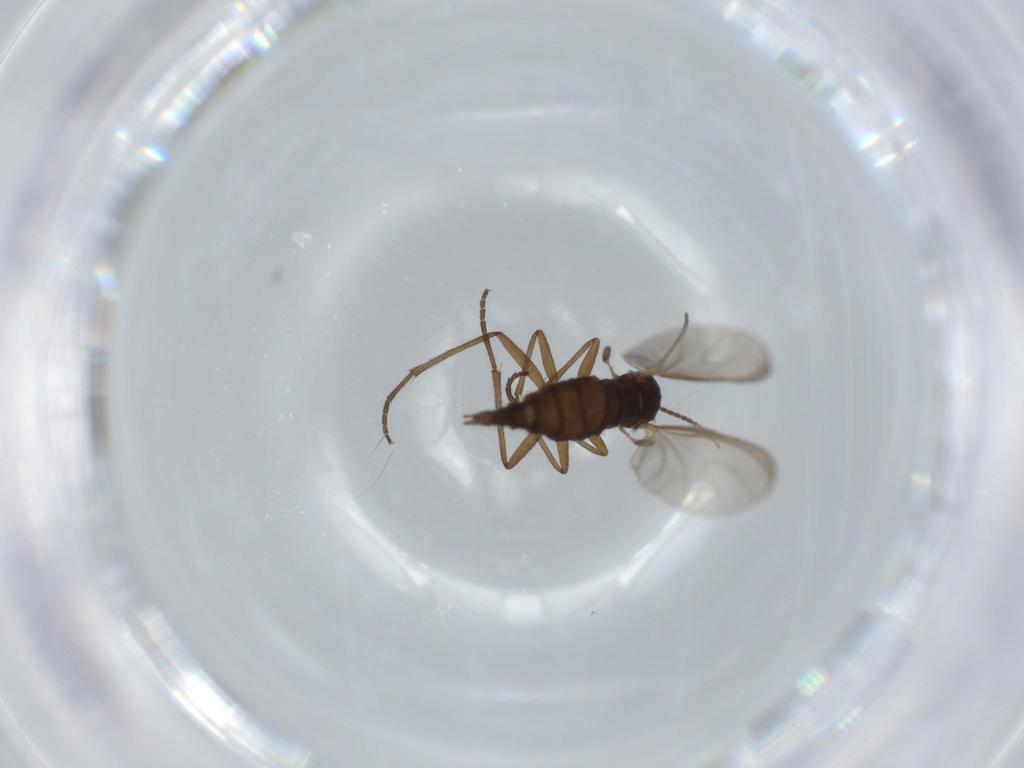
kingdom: Animalia
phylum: Arthropoda
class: Insecta
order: Diptera
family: Sciaridae
